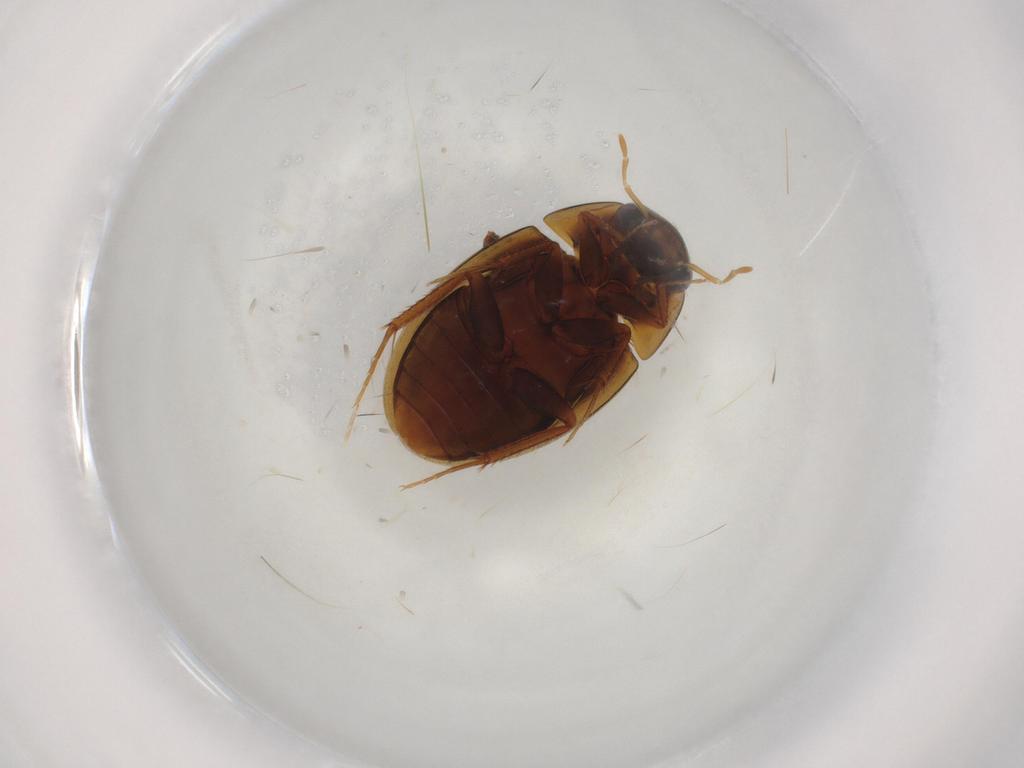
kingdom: Animalia
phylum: Arthropoda
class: Insecta
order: Coleoptera
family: Hydrophilidae
